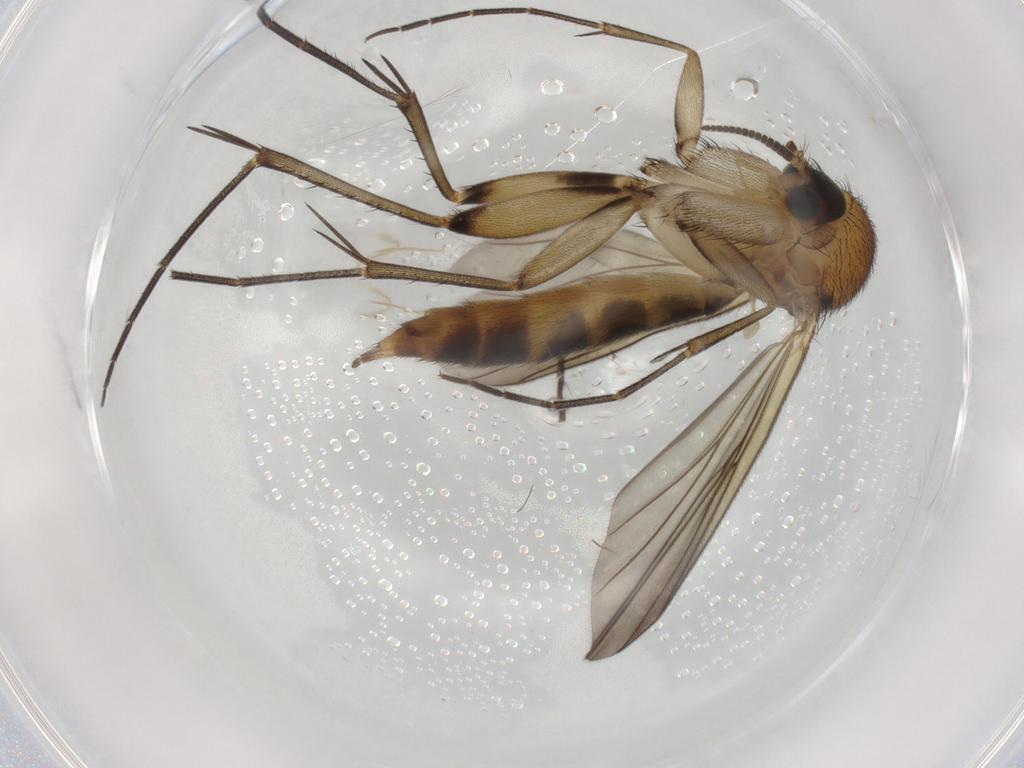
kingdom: Animalia
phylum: Arthropoda
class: Insecta
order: Diptera
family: Mycetophilidae
